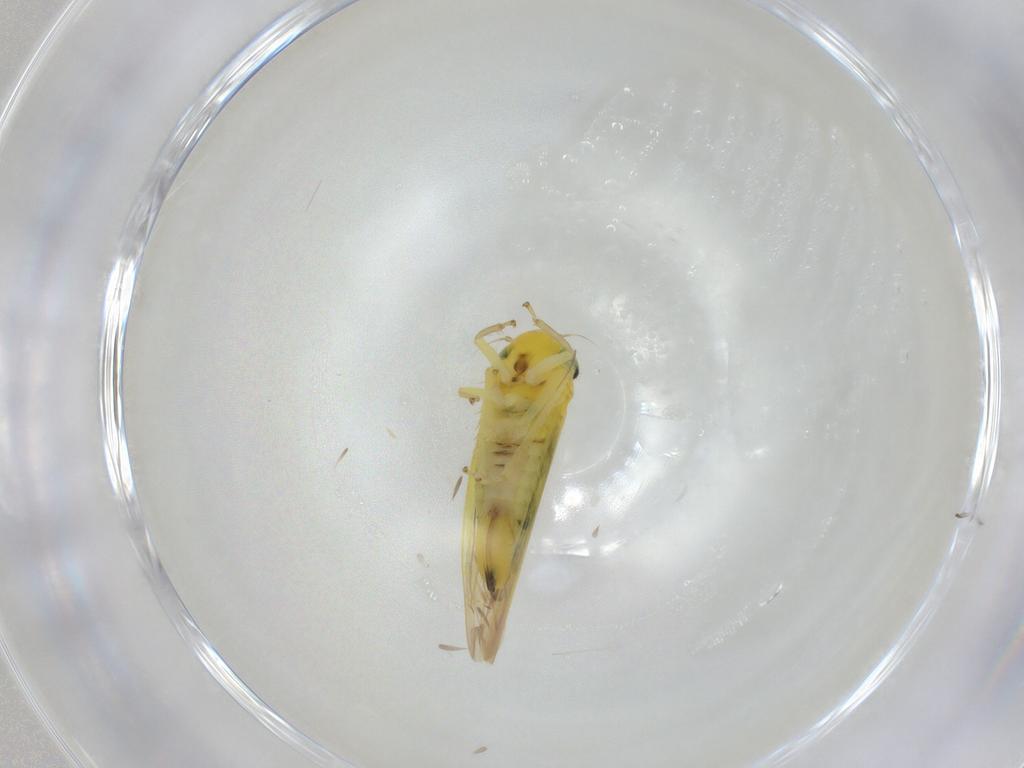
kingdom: Animalia
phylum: Arthropoda
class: Insecta
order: Hemiptera
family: Cicadellidae
